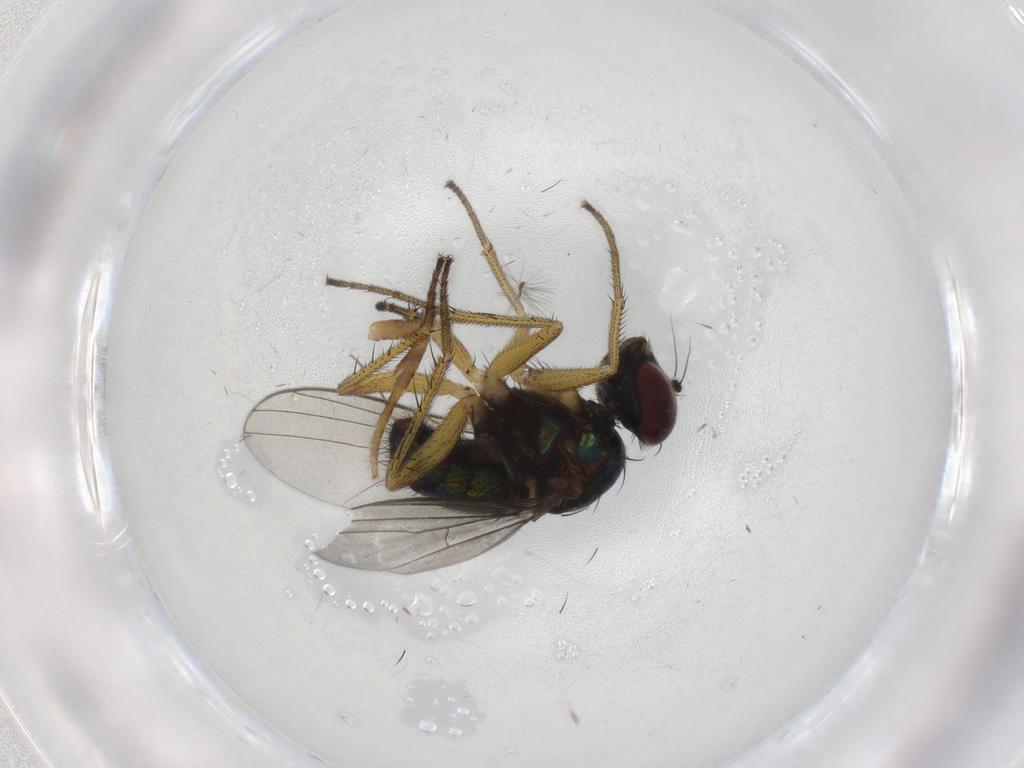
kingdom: Animalia
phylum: Arthropoda
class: Insecta
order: Diptera
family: Dolichopodidae
